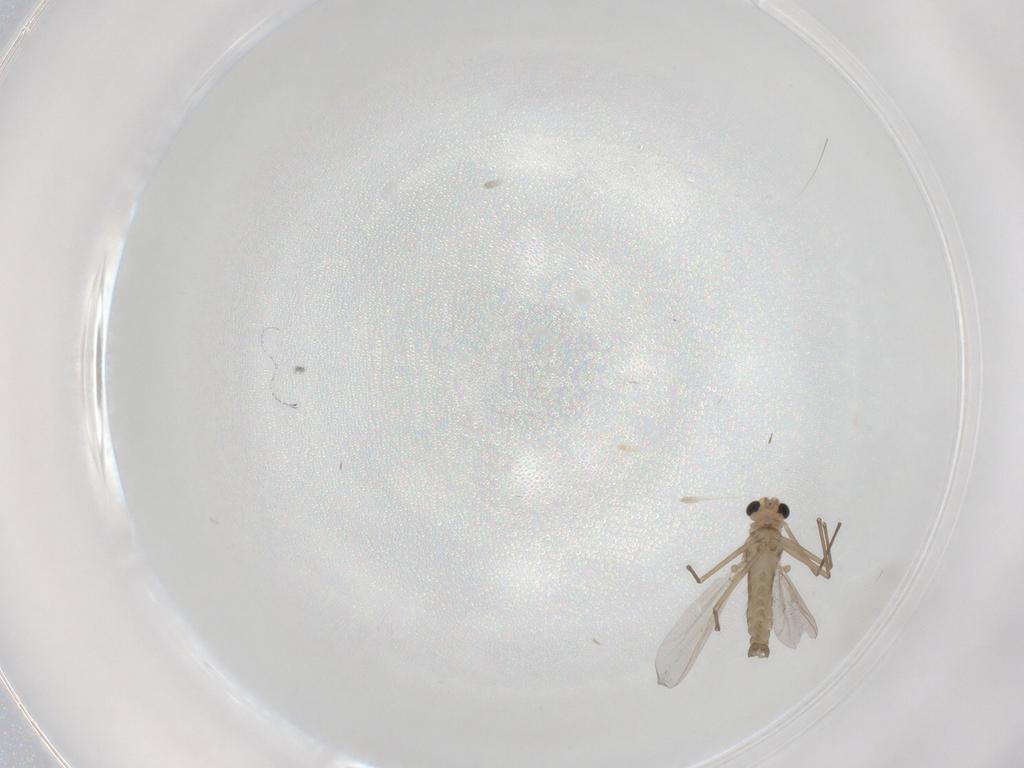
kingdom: Animalia
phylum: Arthropoda
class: Insecta
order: Diptera
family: Chironomidae
